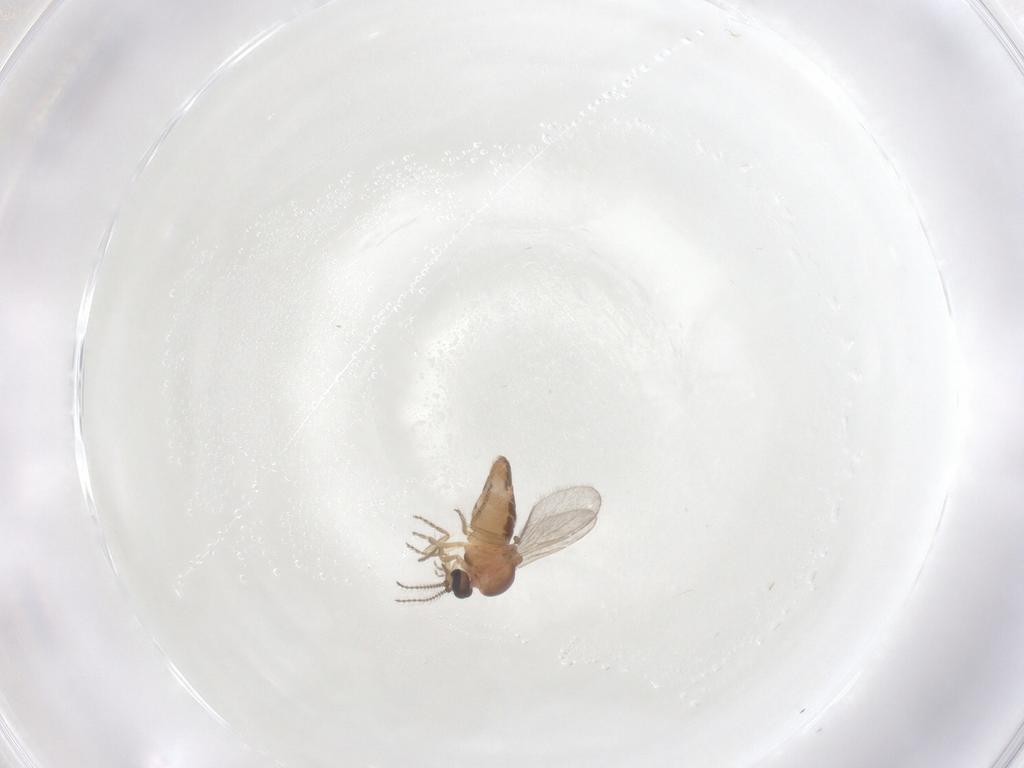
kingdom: Animalia
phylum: Arthropoda
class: Insecta
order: Diptera
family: Ceratopogonidae
